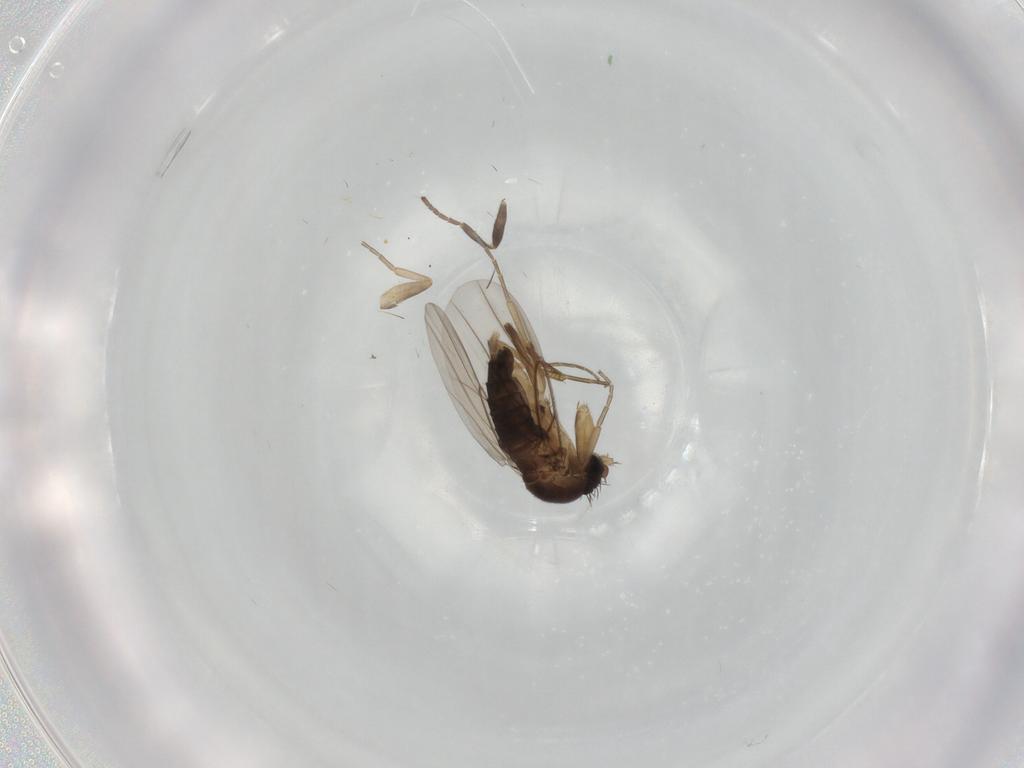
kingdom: Animalia
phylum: Arthropoda
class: Insecta
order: Diptera
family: Phoridae
